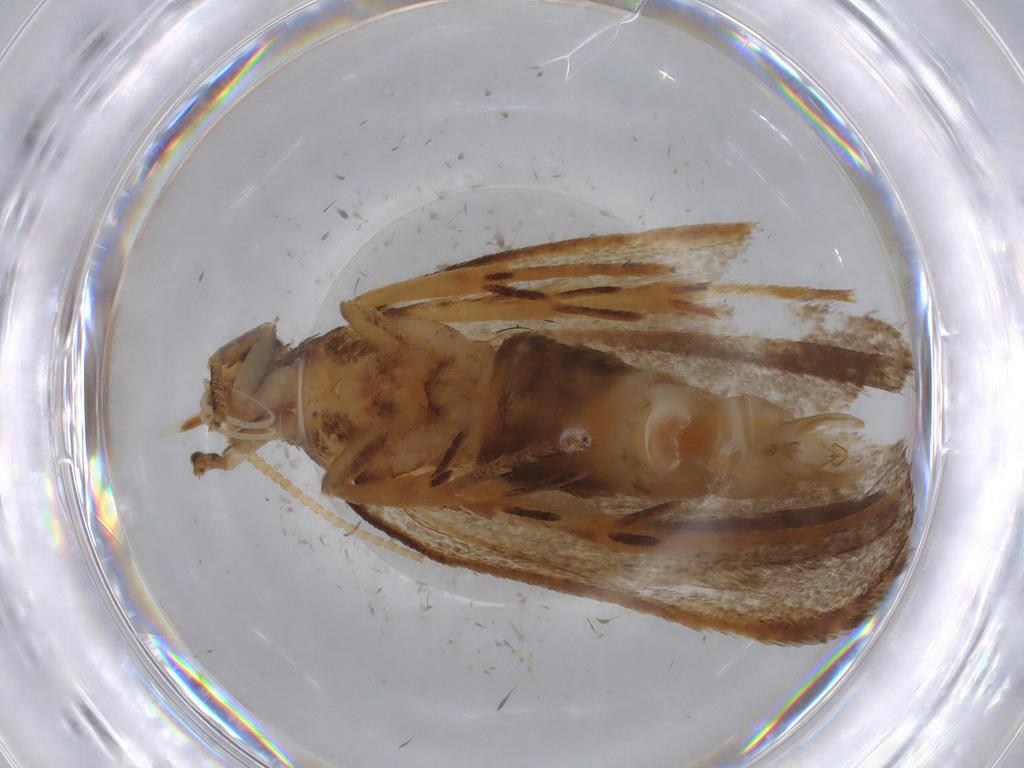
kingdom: Animalia
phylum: Arthropoda
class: Insecta
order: Lepidoptera
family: Lecithoceridae
